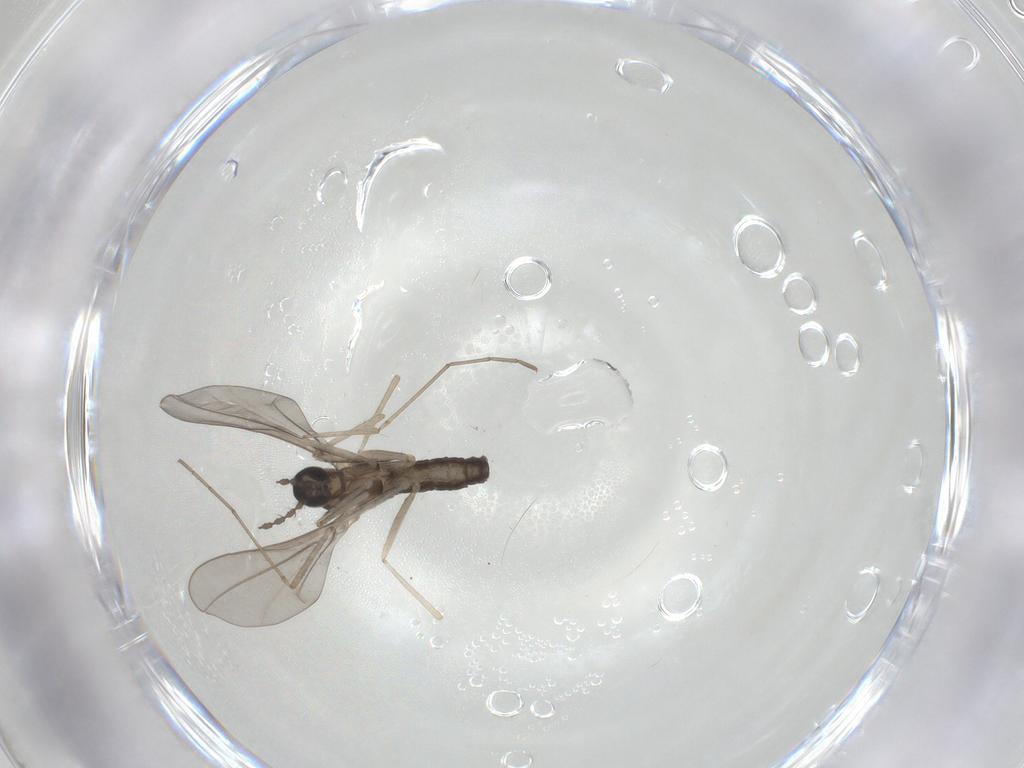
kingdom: Animalia
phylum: Arthropoda
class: Insecta
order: Diptera
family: Cecidomyiidae
